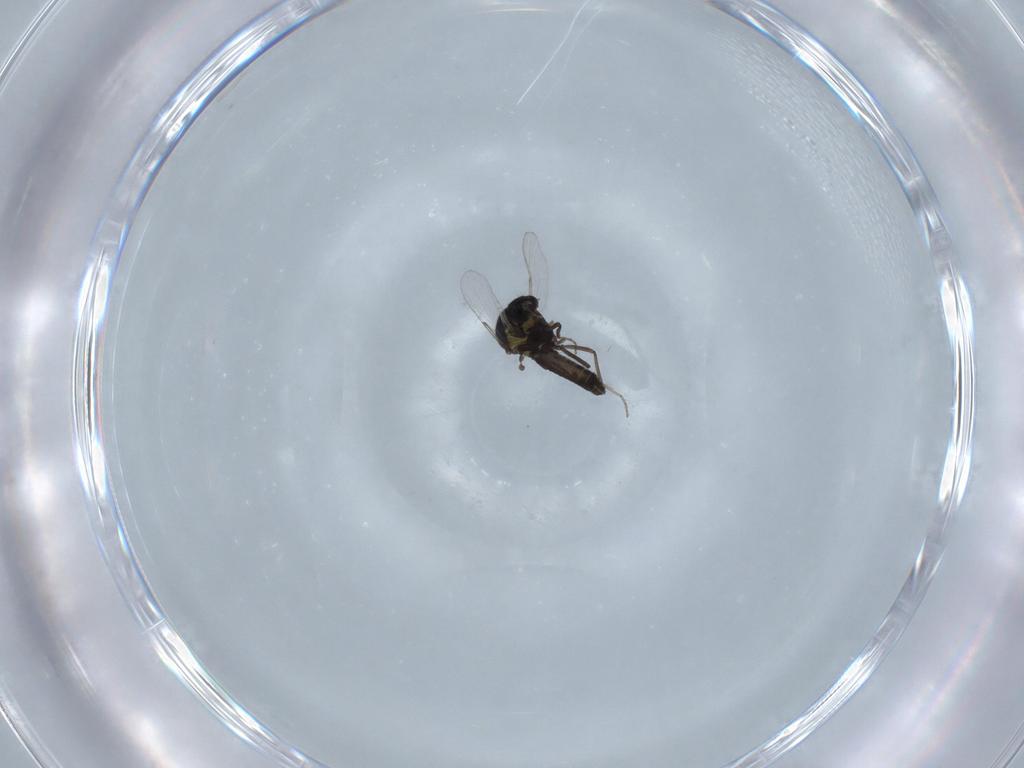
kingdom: Animalia
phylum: Arthropoda
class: Insecta
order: Diptera
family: Ceratopogonidae
